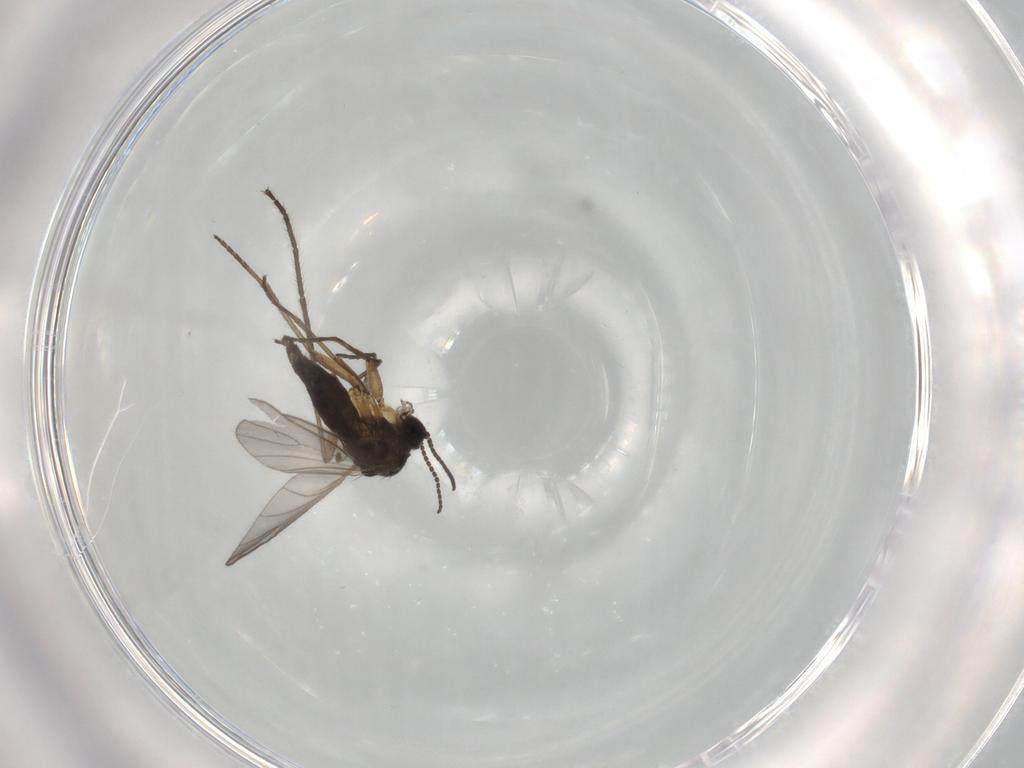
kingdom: Animalia
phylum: Arthropoda
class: Insecta
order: Diptera
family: Sciaridae
